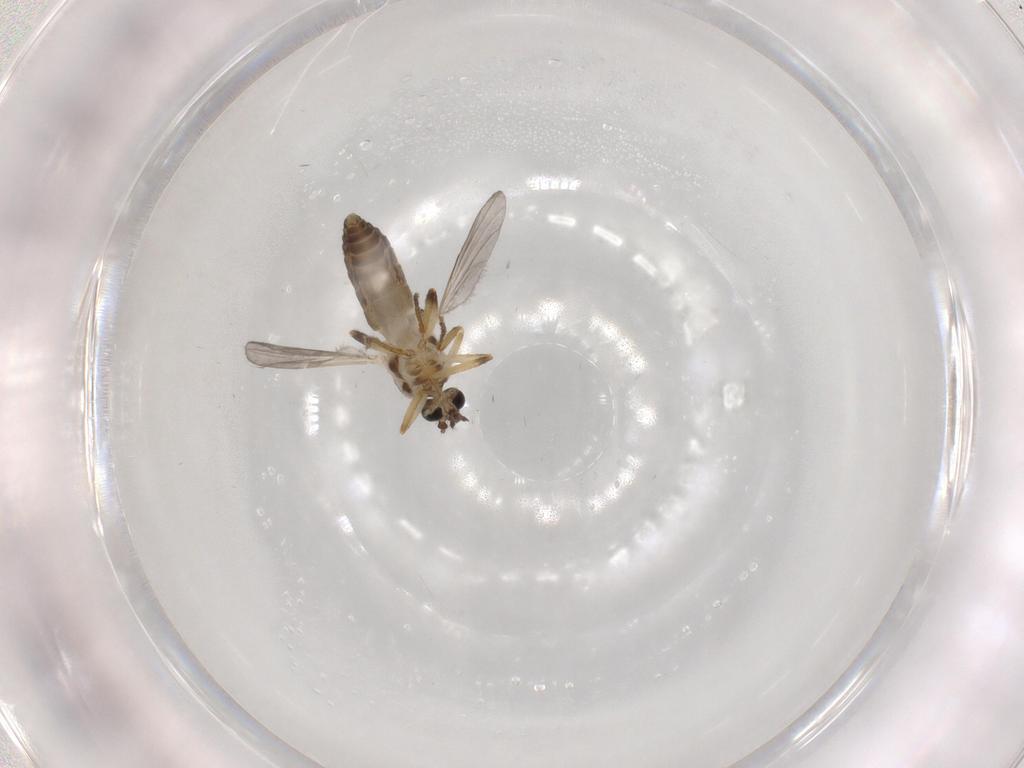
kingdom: Animalia
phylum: Arthropoda
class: Insecta
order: Diptera
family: Ceratopogonidae
